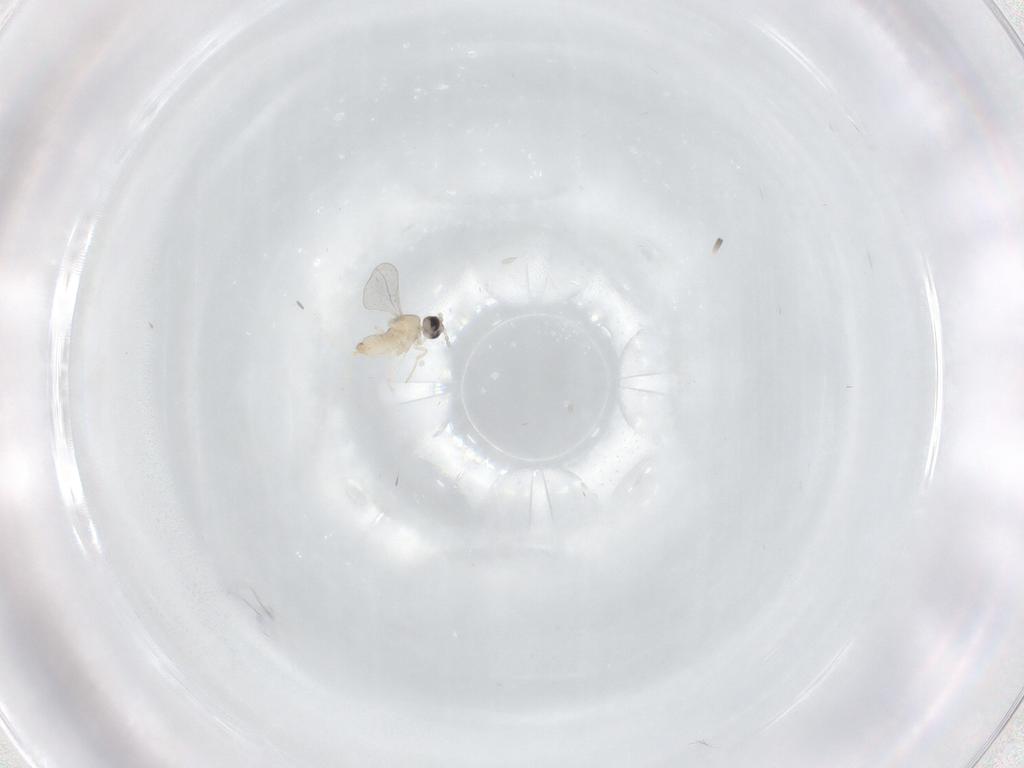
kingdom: Animalia
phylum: Arthropoda
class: Insecta
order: Diptera
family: Cecidomyiidae
